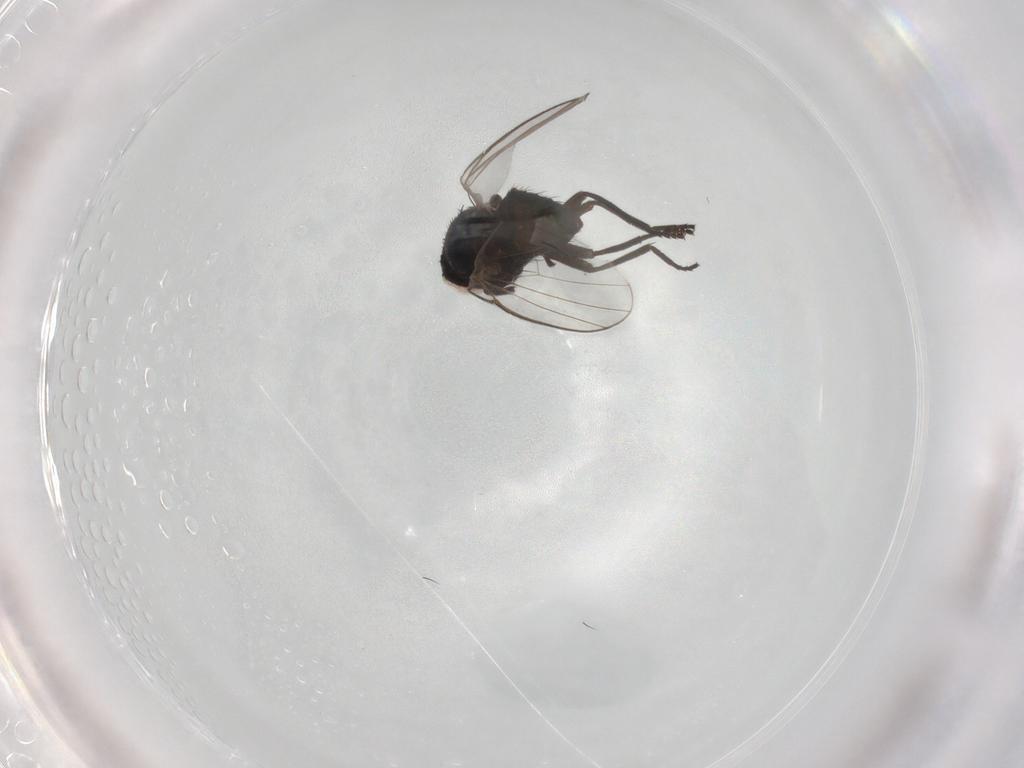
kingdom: Animalia
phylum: Arthropoda
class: Insecta
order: Diptera
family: Agromyzidae
